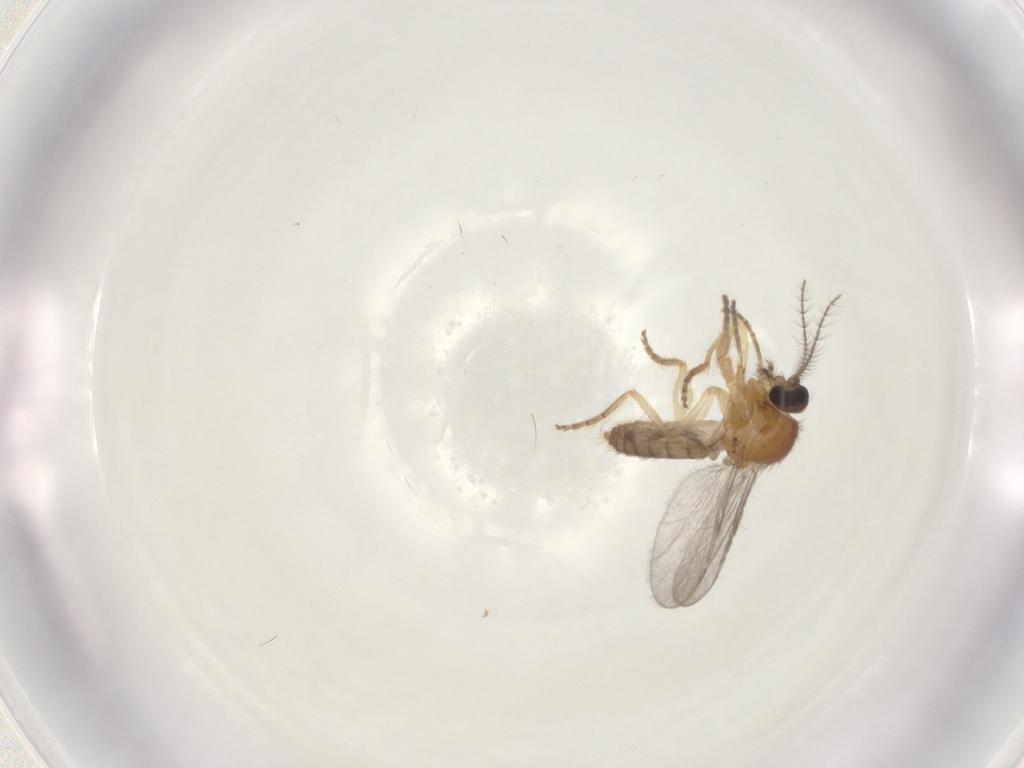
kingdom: Animalia
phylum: Arthropoda
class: Insecta
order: Diptera
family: Ceratopogonidae
